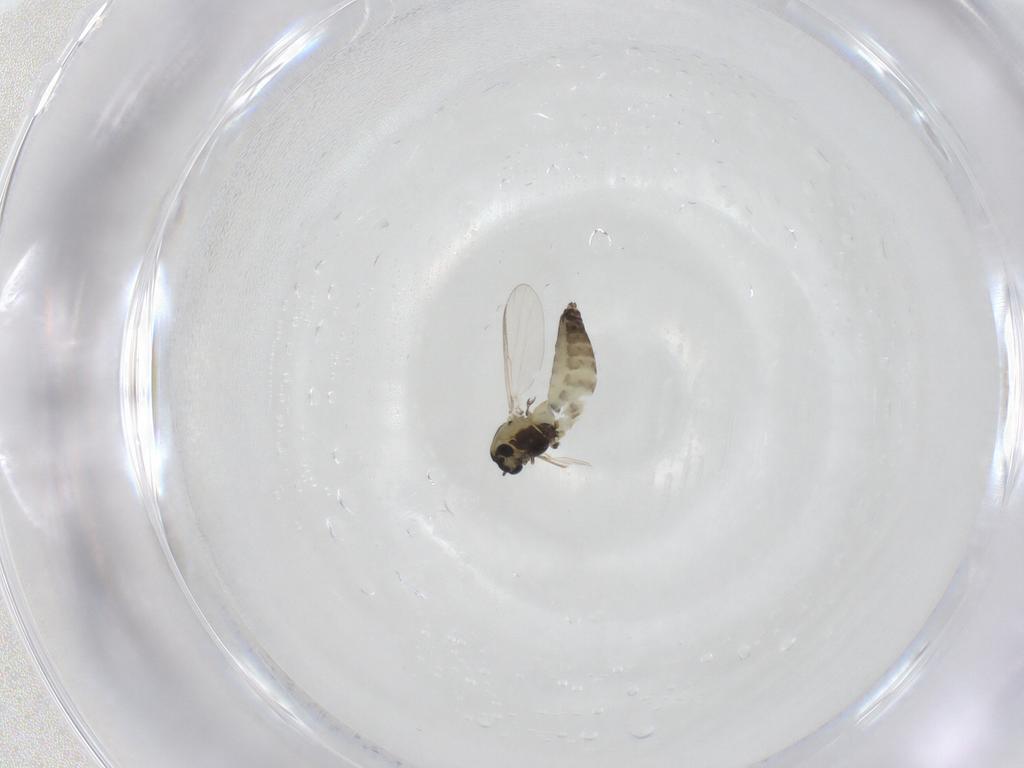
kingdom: Animalia
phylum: Arthropoda
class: Insecta
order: Diptera
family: Chironomidae
